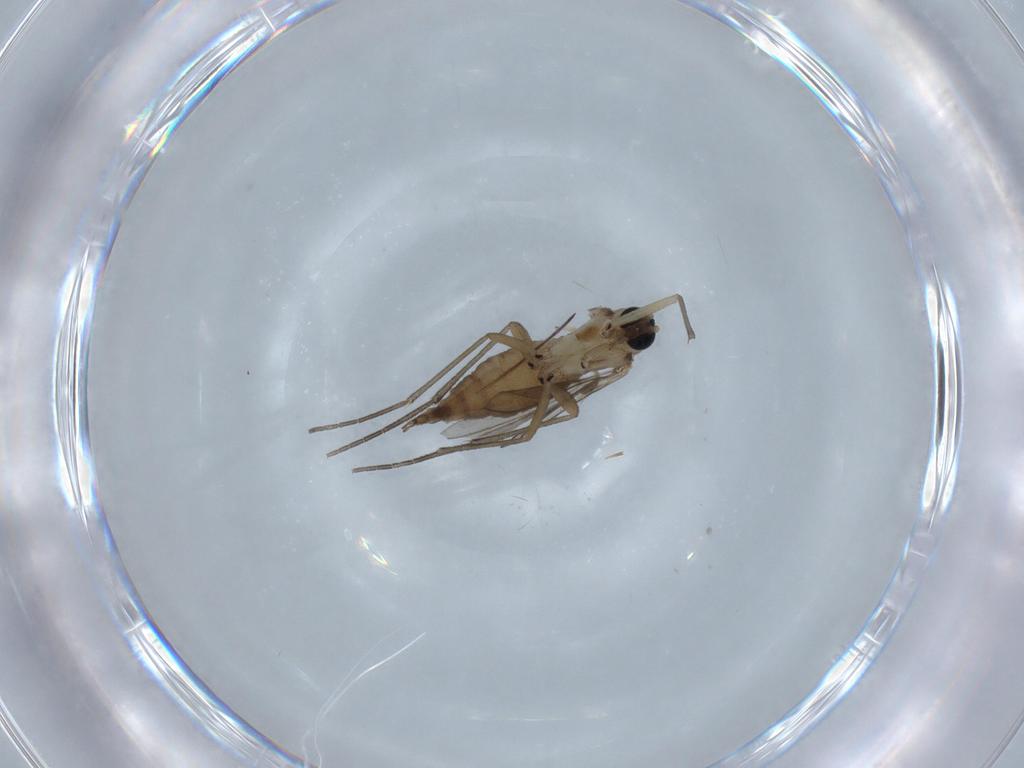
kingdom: Animalia
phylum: Arthropoda
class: Insecta
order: Diptera
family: Sciaridae
